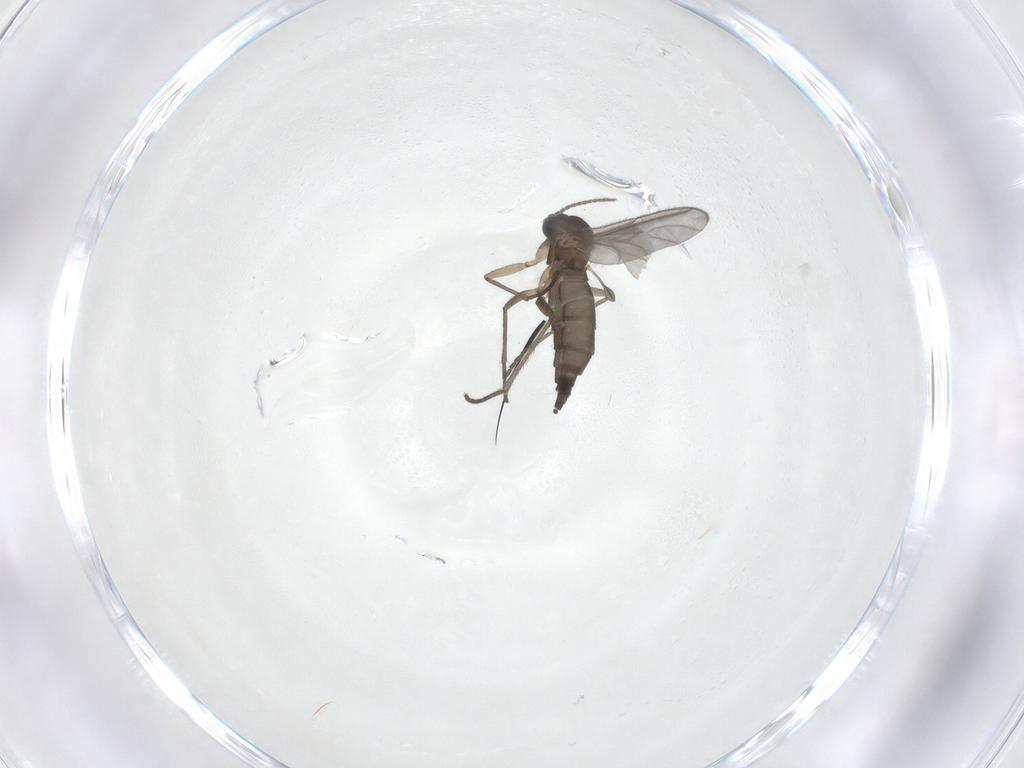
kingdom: Animalia
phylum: Arthropoda
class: Insecta
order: Diptera
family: Sciaridae
